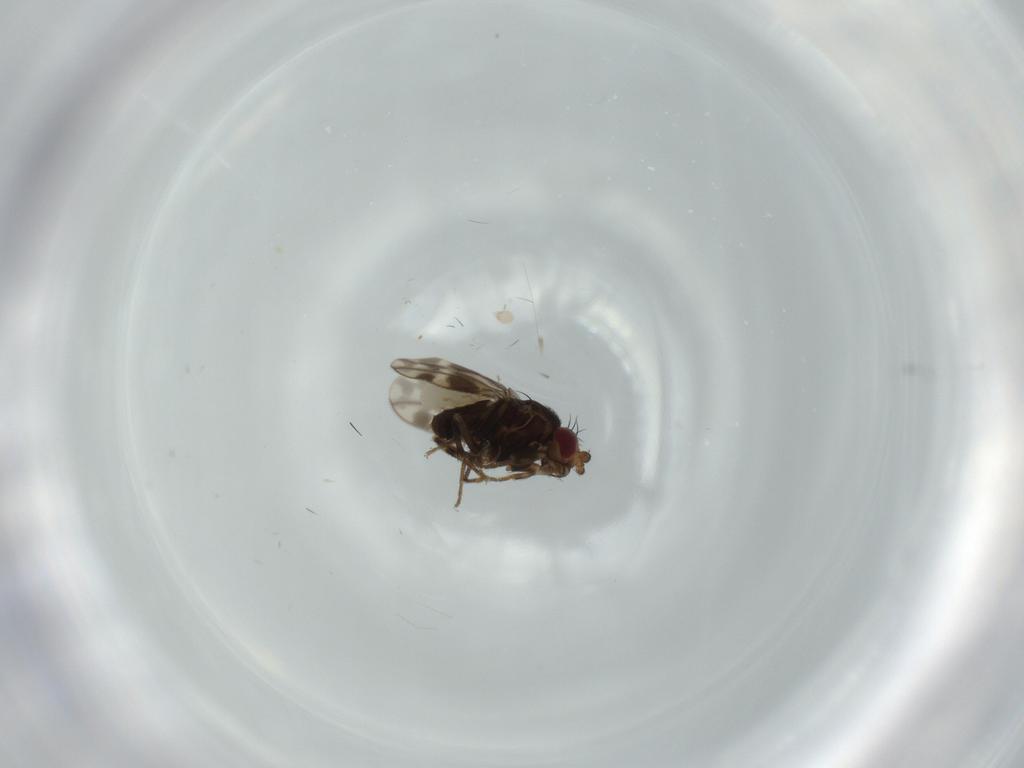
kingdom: Animalia
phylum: Arthropoda
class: Insecta
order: Diptera
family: Sphaeroceridae
